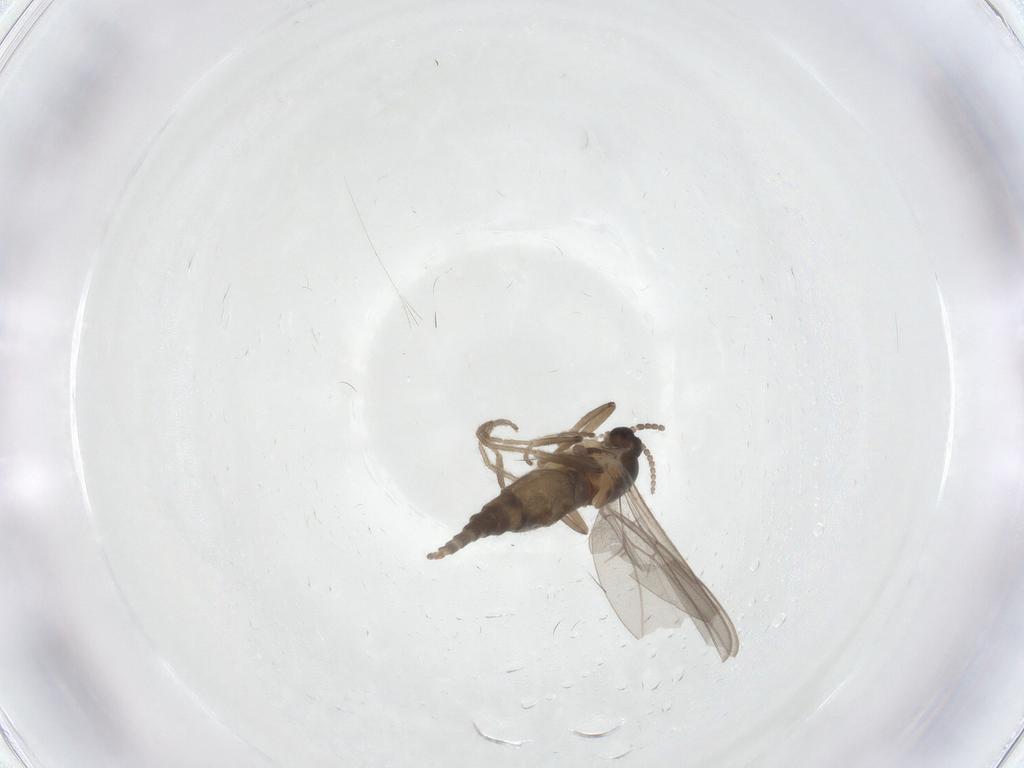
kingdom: Animalia
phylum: Arthropoda
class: Insecta
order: Diptera
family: Cecidomyiidae
